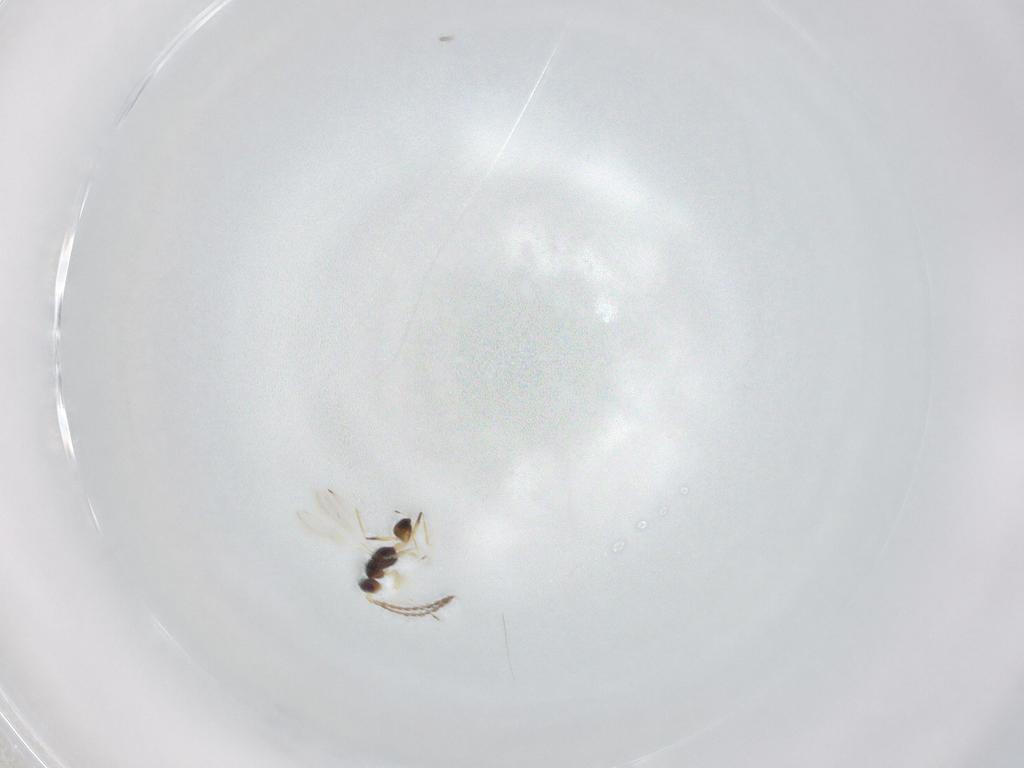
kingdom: Animalia
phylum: Arthropoda
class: Insecta
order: Hymenoptera
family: Mymaridae
